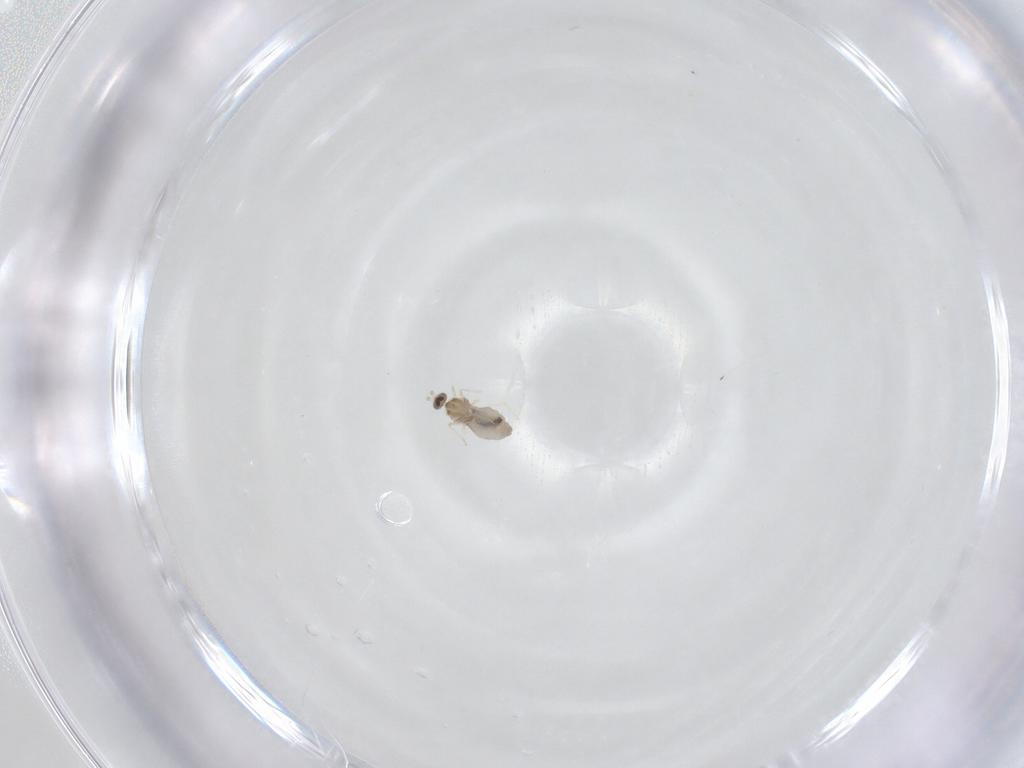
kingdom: Animalia
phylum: Arthropoda
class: Insecta
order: Diptera
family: Cecidomyiidae
